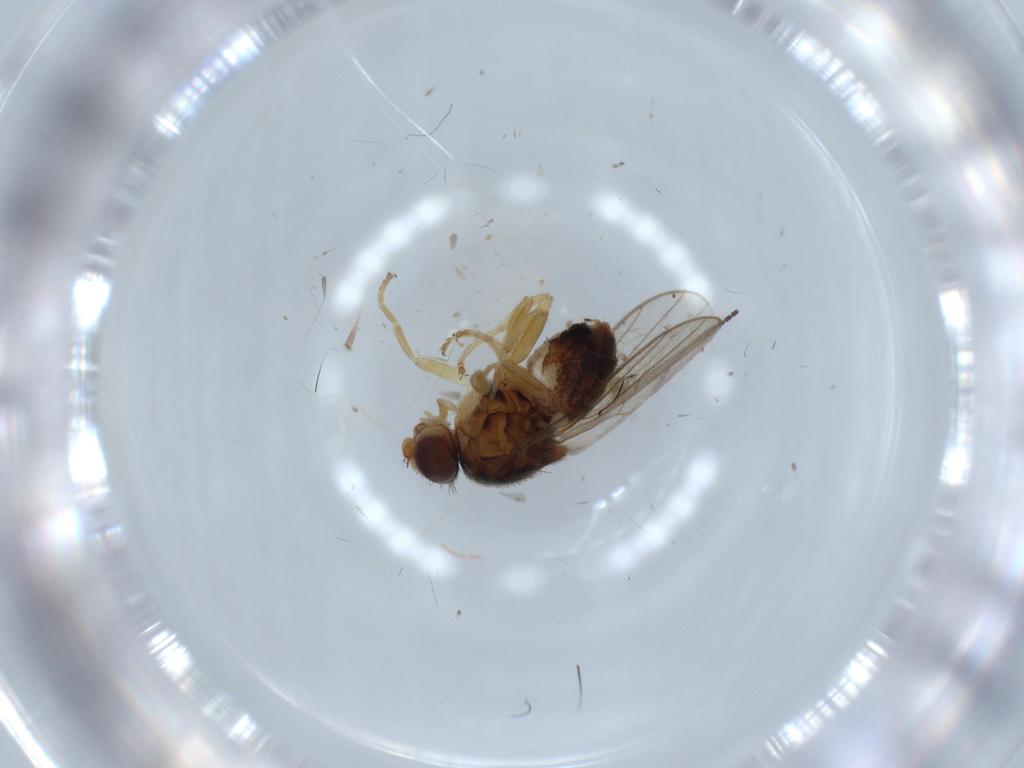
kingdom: Animalia
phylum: Arthropoda
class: Insecta
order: Diptera
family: Chloropidae
